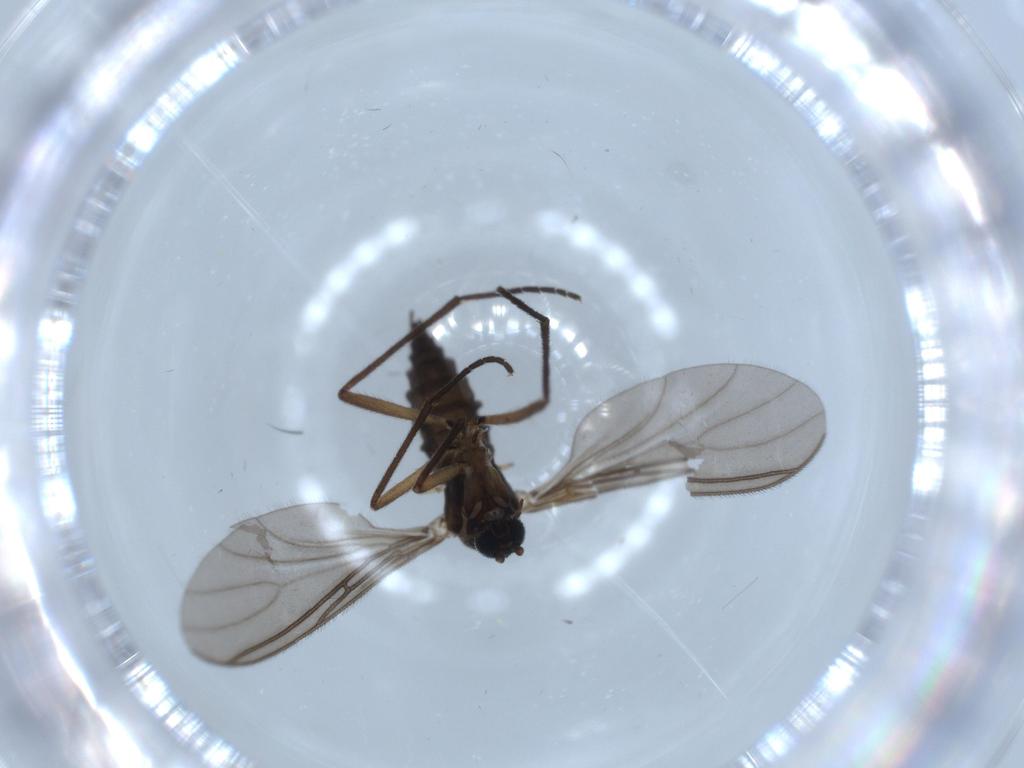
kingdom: Animalia
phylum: Arthropoda
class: Insecta
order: Diptera
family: Sciaridae
